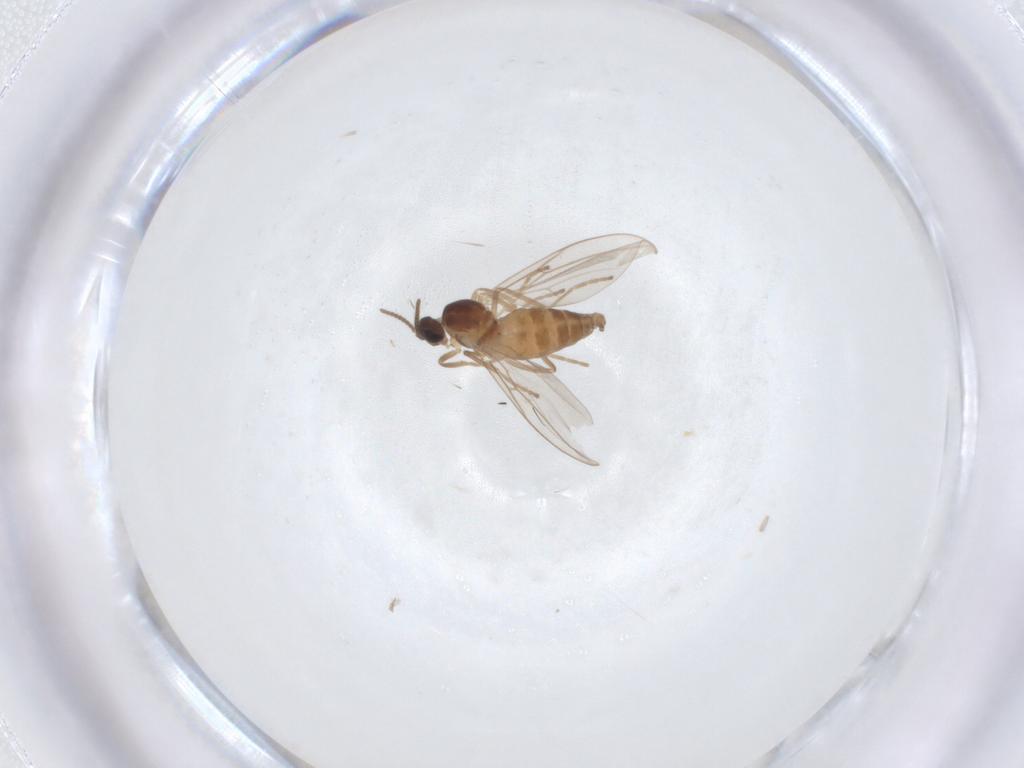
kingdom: Animalia
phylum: Arthropoda
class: Insecta
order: Diptera
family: Cecidomyiidae
